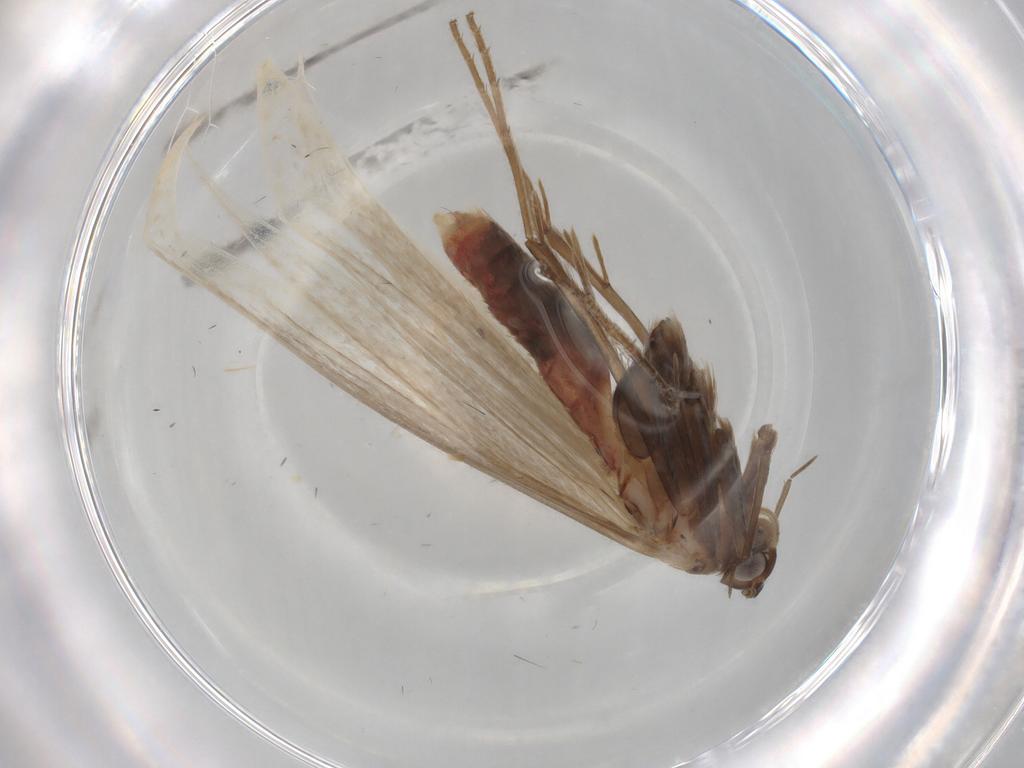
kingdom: Animalia
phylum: Arthropoda
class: Insecta
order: Lepidoptera
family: Coleophoridae
